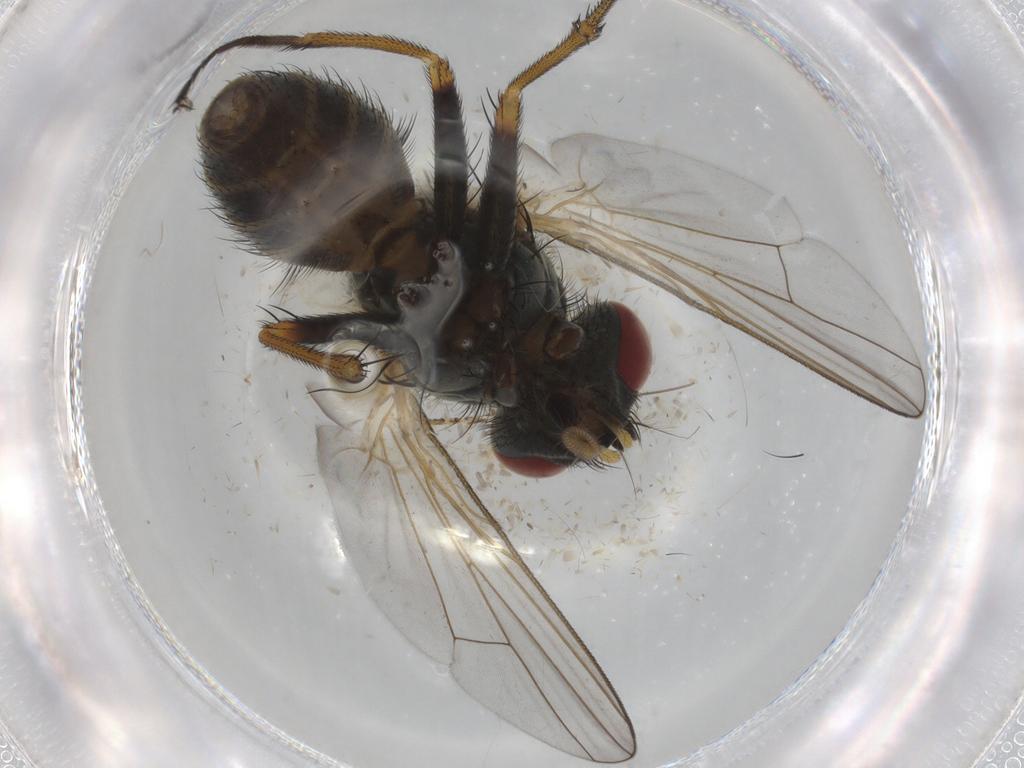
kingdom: Animalia
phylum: Arthropoda
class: Insecta
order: Diptera
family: Muscidae
